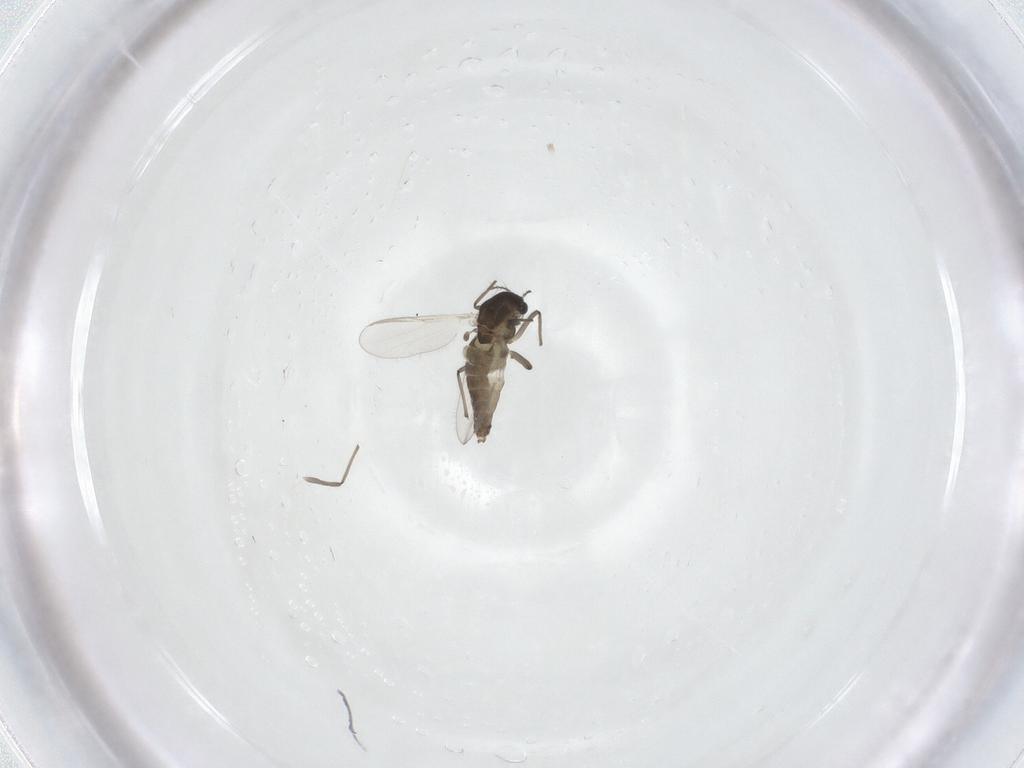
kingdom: Animalia
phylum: Arthropoda
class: Insecta
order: Diptera
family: Chironomidae
